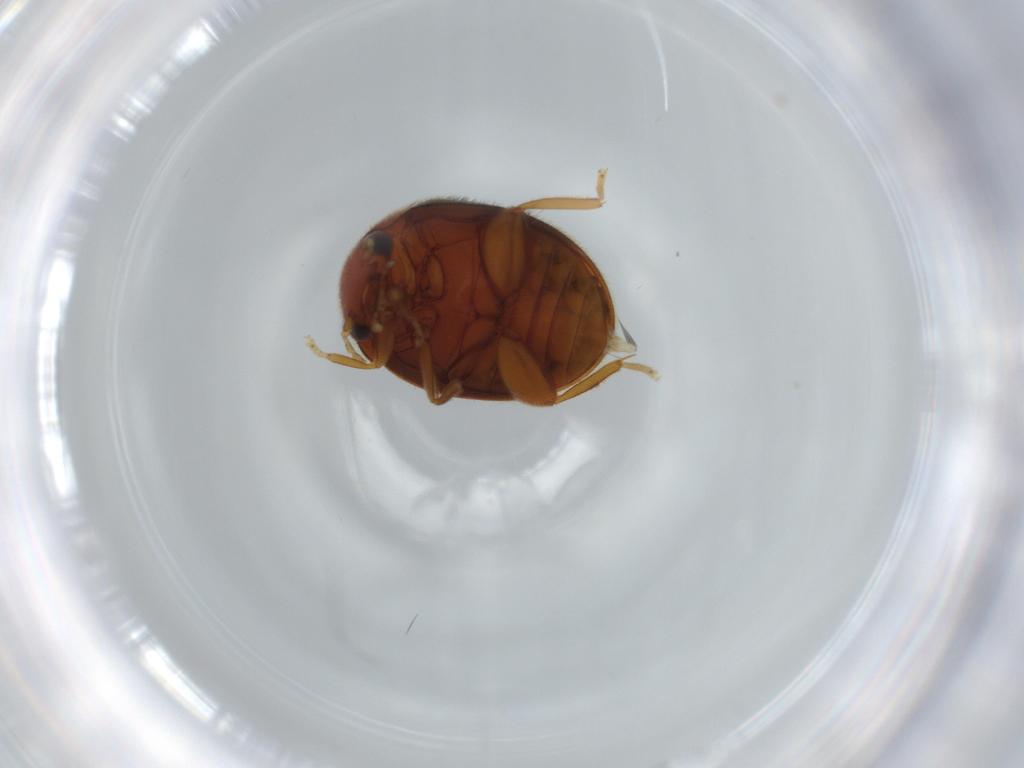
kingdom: Animalia
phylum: Arthropoda
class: Insecta
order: Coleoptera
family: Scirtidae
